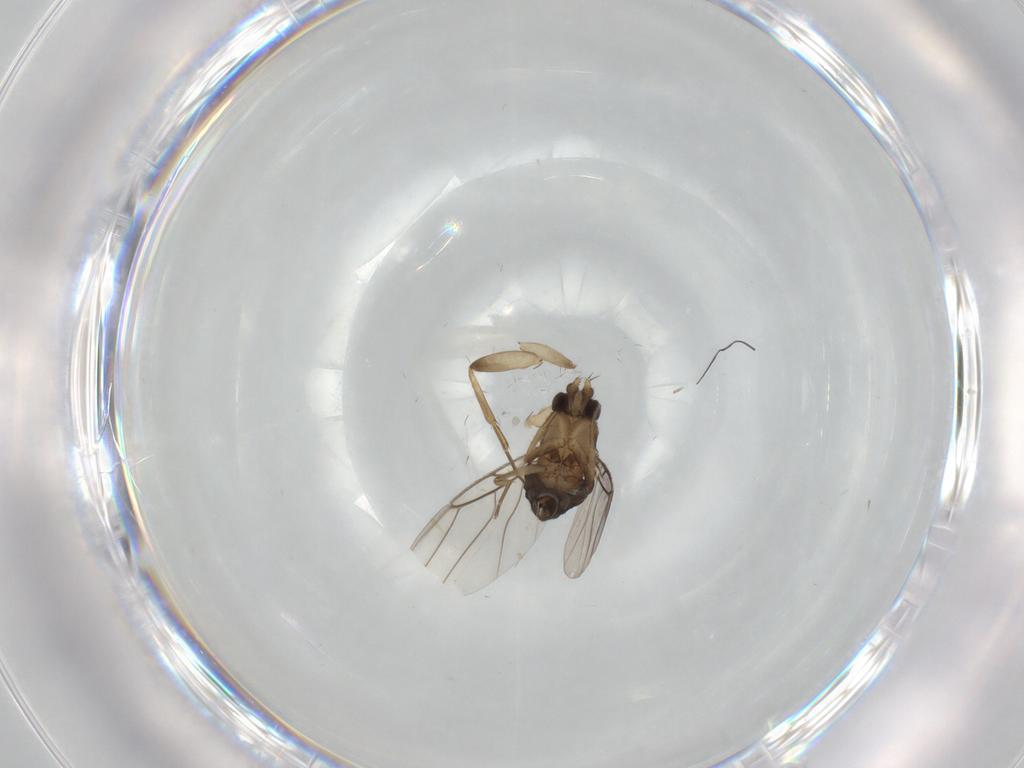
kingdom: Animalia
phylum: Arthropoda
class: Insecta
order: Diptera
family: Phoridae
